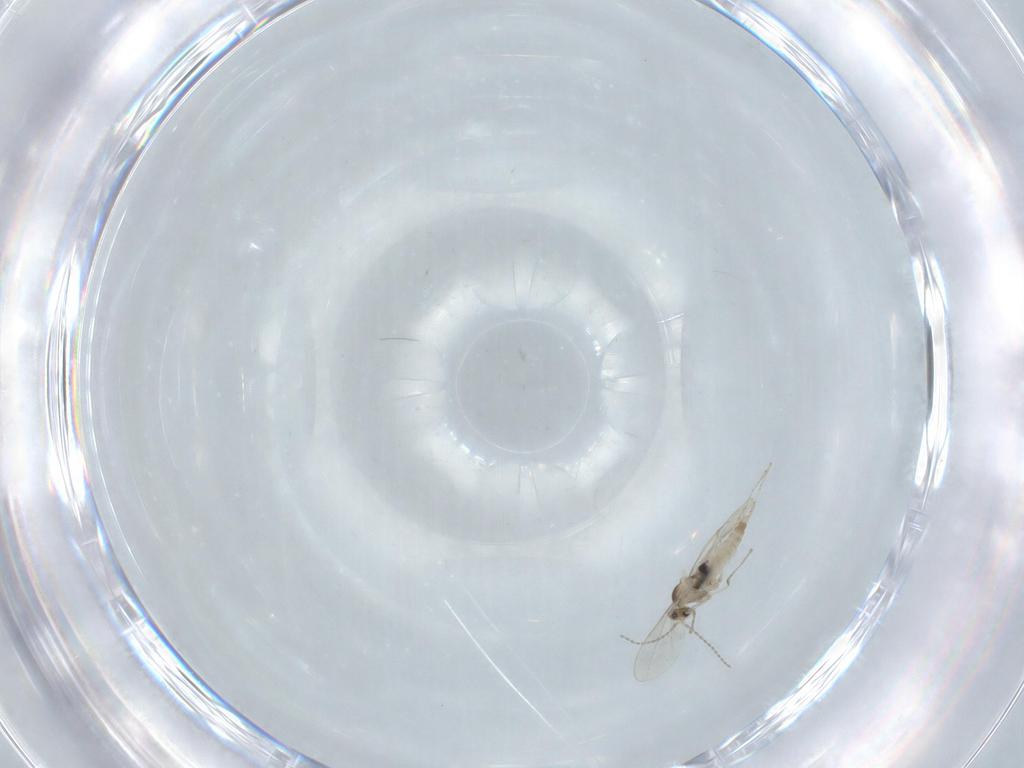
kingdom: Animalia
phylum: Arthropoda
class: Insecta
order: Diptera
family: Cecidomyiidae
